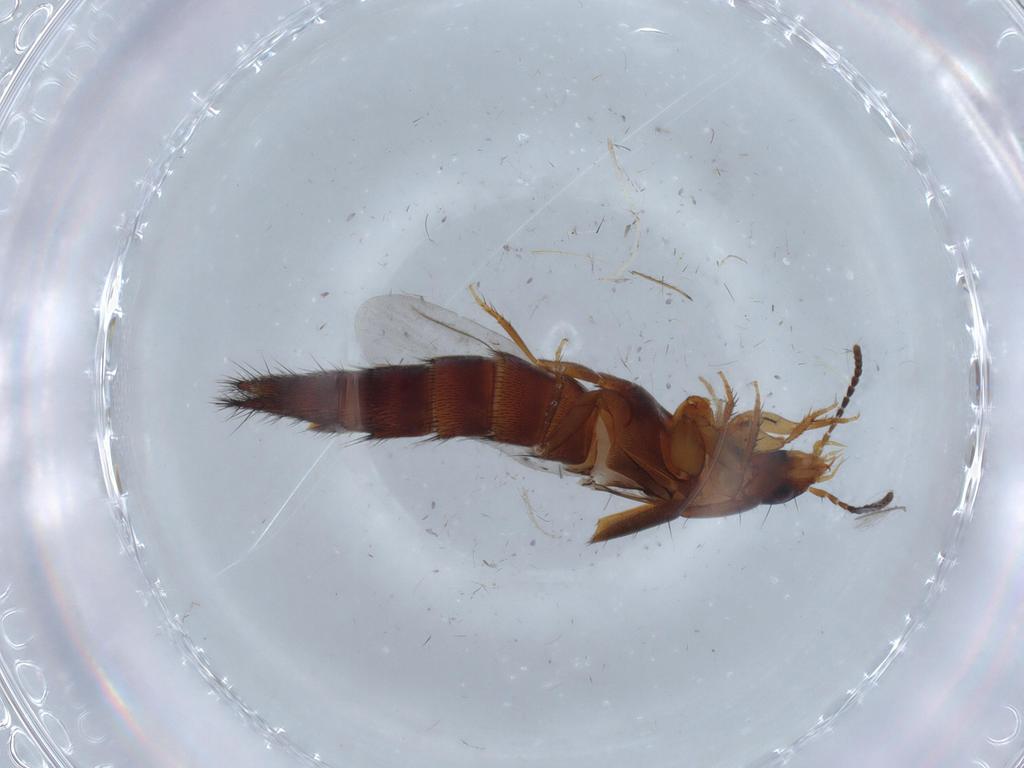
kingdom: Animalia
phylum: Arthropoda
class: Insecta
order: Coleoptera
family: Staphylinidae
